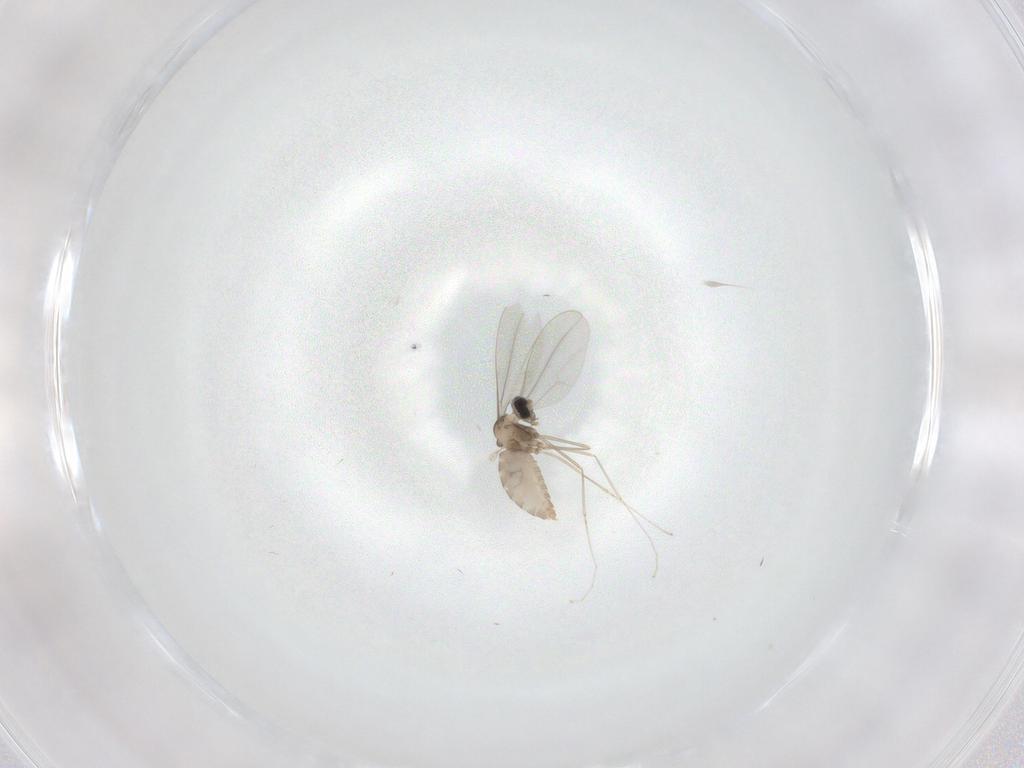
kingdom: Animalia
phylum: Arthropoda
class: Insecta
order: Diptera
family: Cecidomyiidae
